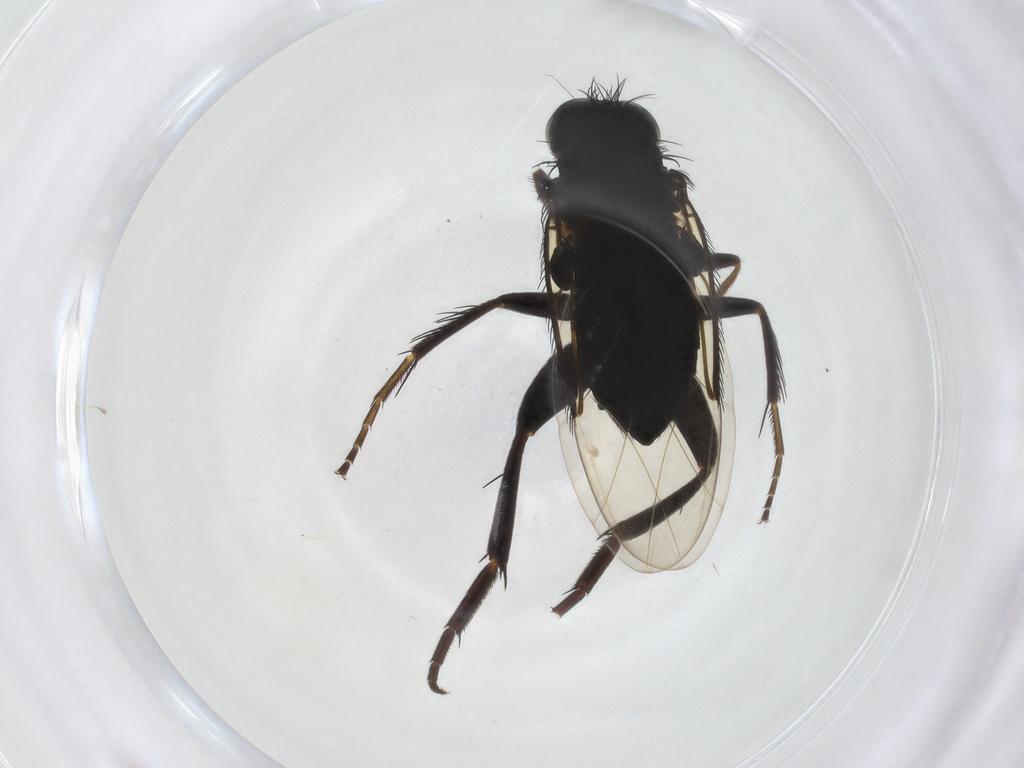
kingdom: Animalia
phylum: Arthropoda
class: Insecta
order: Diptera
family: Phoridae
